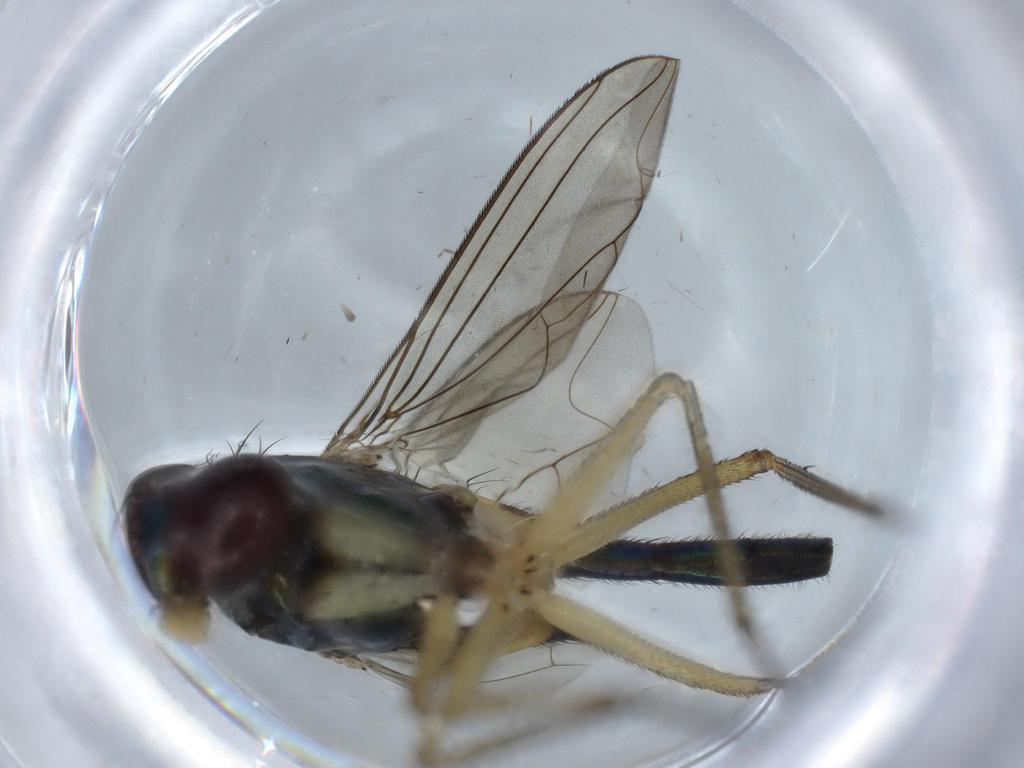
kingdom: Animalia
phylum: Arthropoda
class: Insecta
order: Diptera
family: Dolichopodidae
